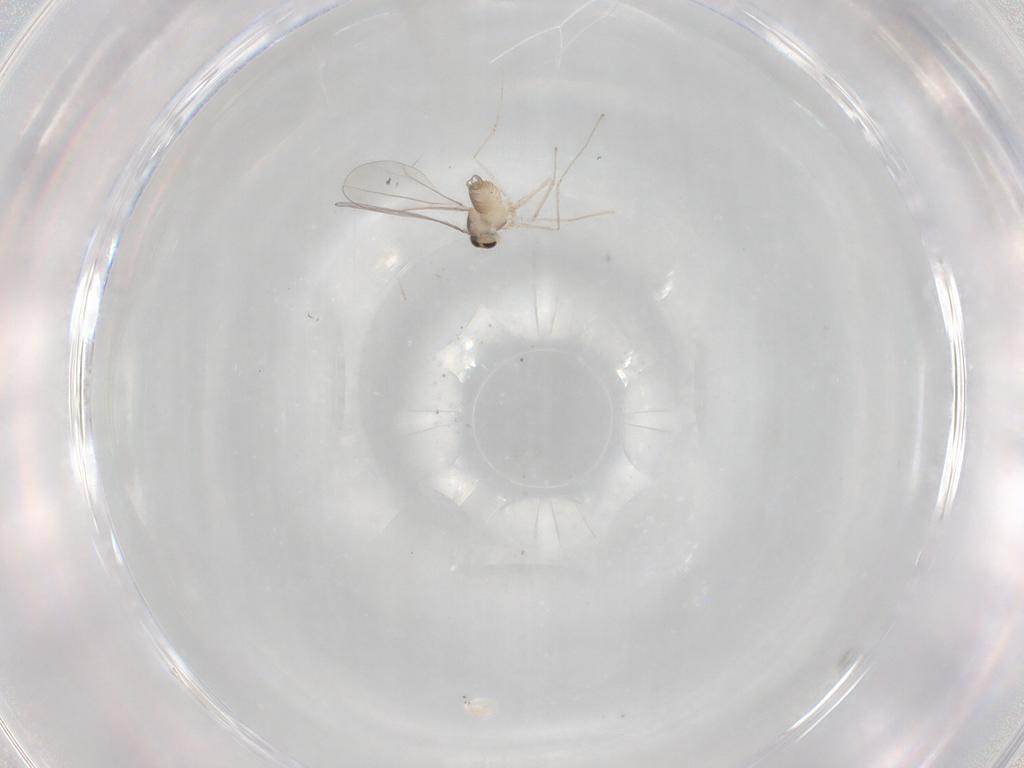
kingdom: Animalia
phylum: Arthropoda
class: Insecta
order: Diptera
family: Cecidomyiidae
